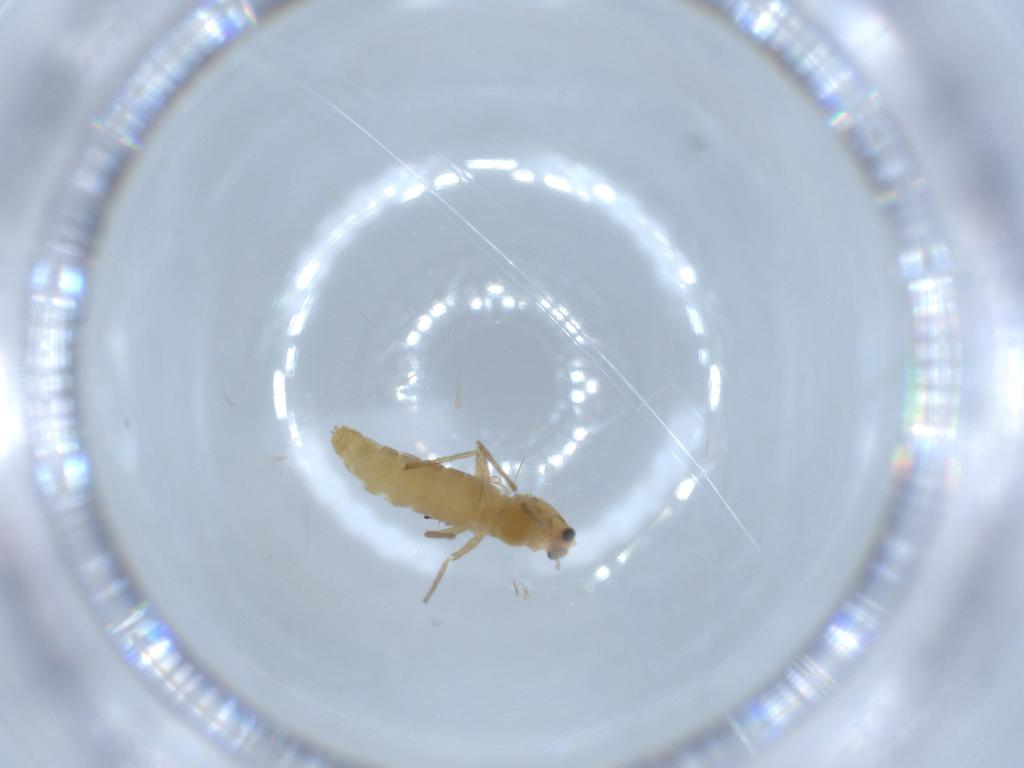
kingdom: Animalia
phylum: Arthropoda
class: Insecta
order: Diptera
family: Chironomidae
